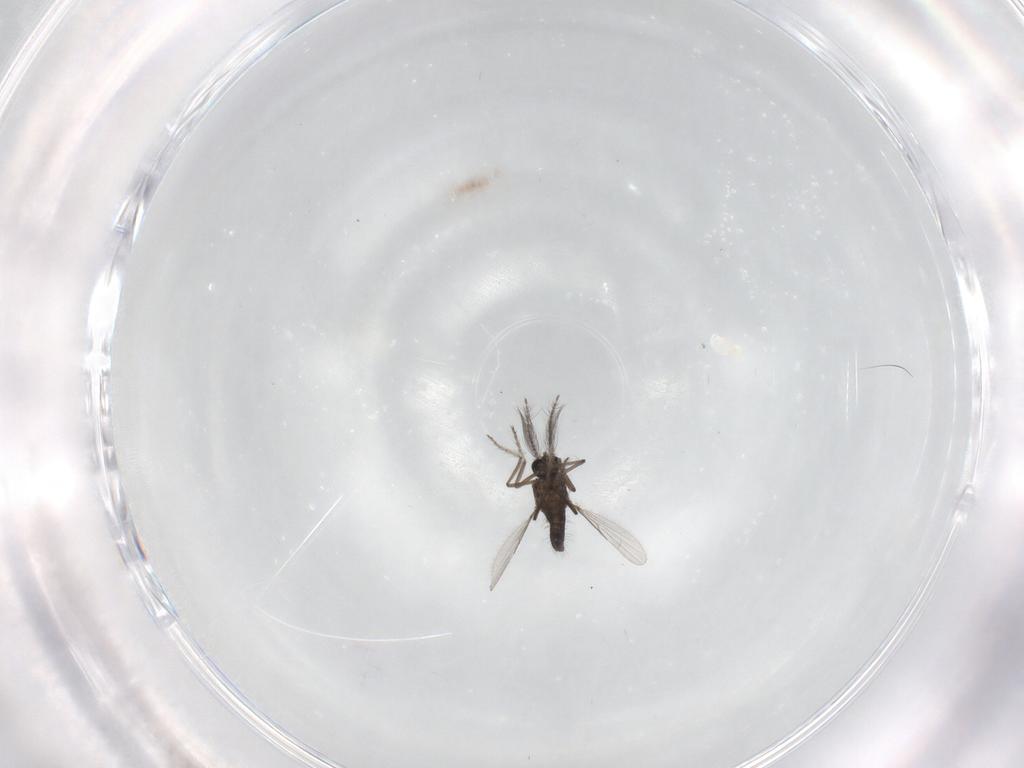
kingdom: Animalia
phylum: Arthropoda
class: Insecta
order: Diptera
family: Ceratopogonidae
